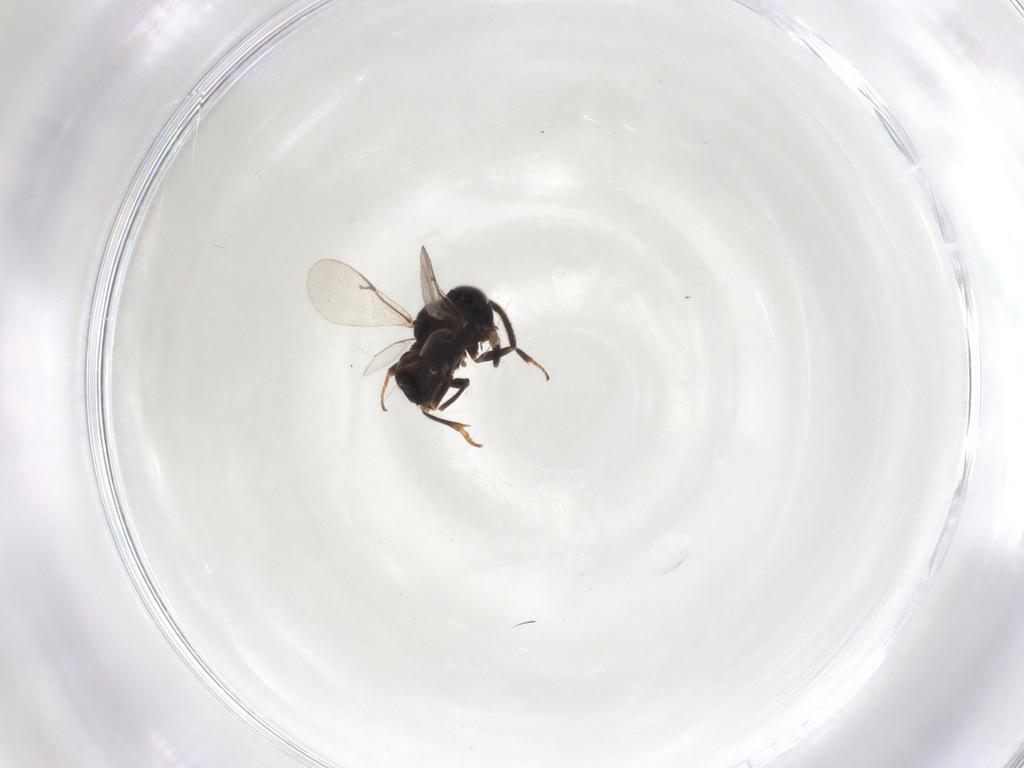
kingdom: Animalia
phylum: Arthropoda
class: Insecta
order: Hymenoptera
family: Encyrtidae
